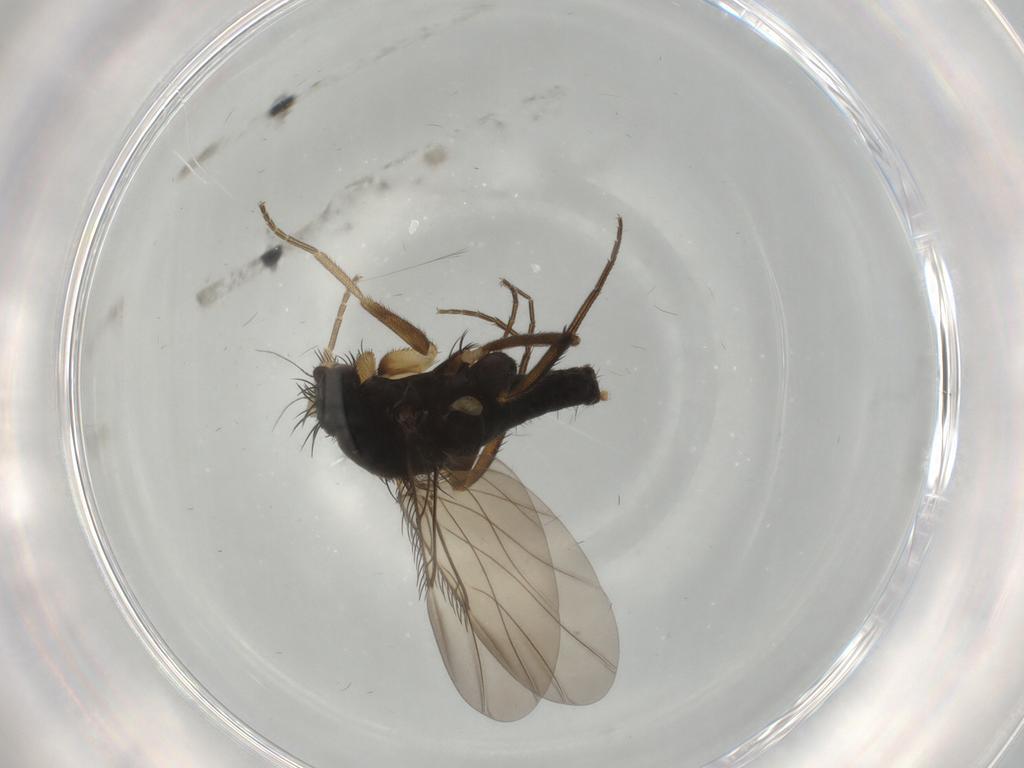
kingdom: Animalia
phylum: Arthropoda
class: Insecta
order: Diptera
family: Phoridae
